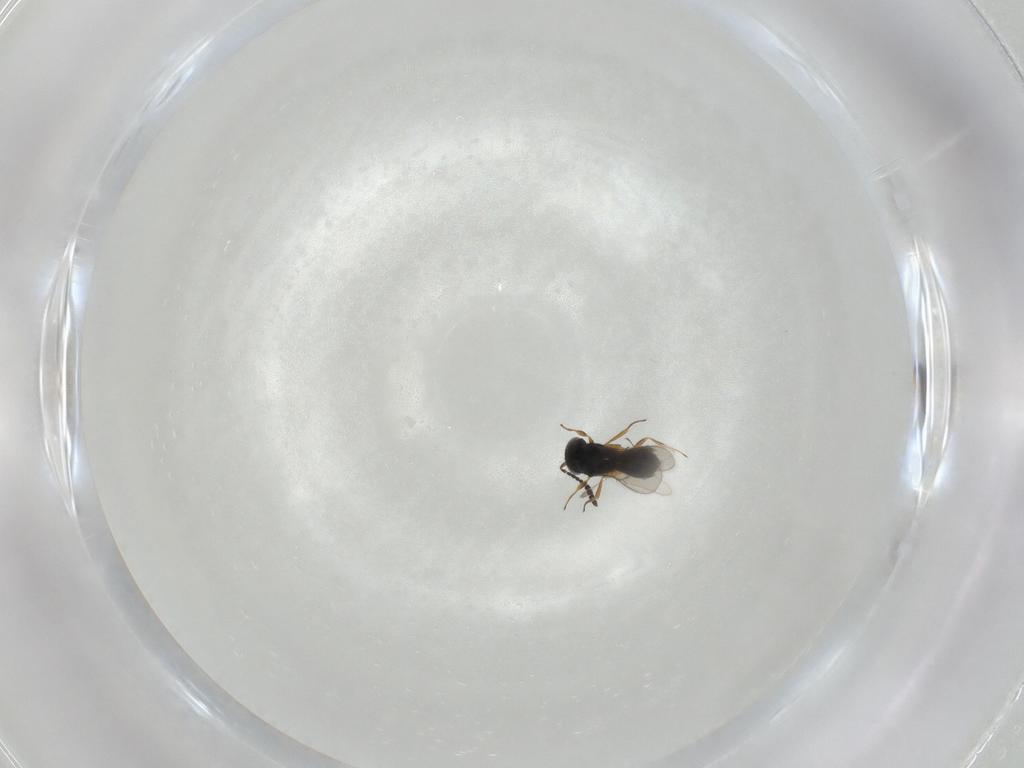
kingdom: Animalia
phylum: Arthropoda
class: Insecta
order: Hymenoptera
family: Scelionidae
